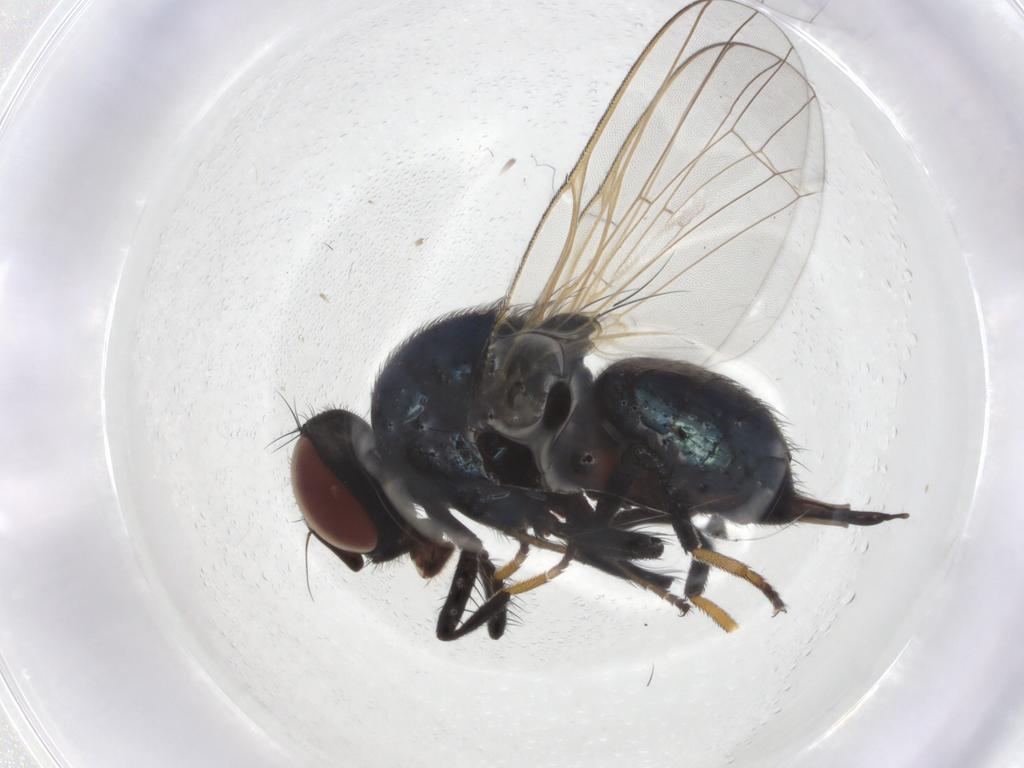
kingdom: Animalia
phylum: Arthropoda
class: Insecta
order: Diptera
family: Lonchaeidae
